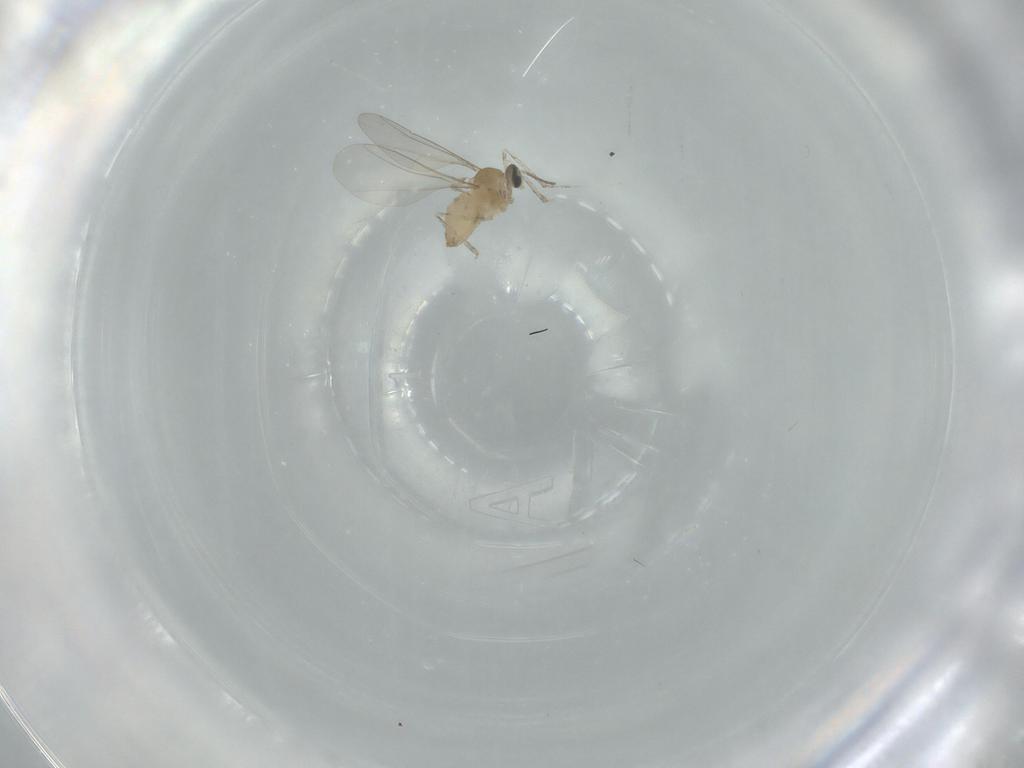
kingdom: Animalia
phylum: Arthropoda
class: Insecta
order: Diptera
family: Cecidomyiidae
